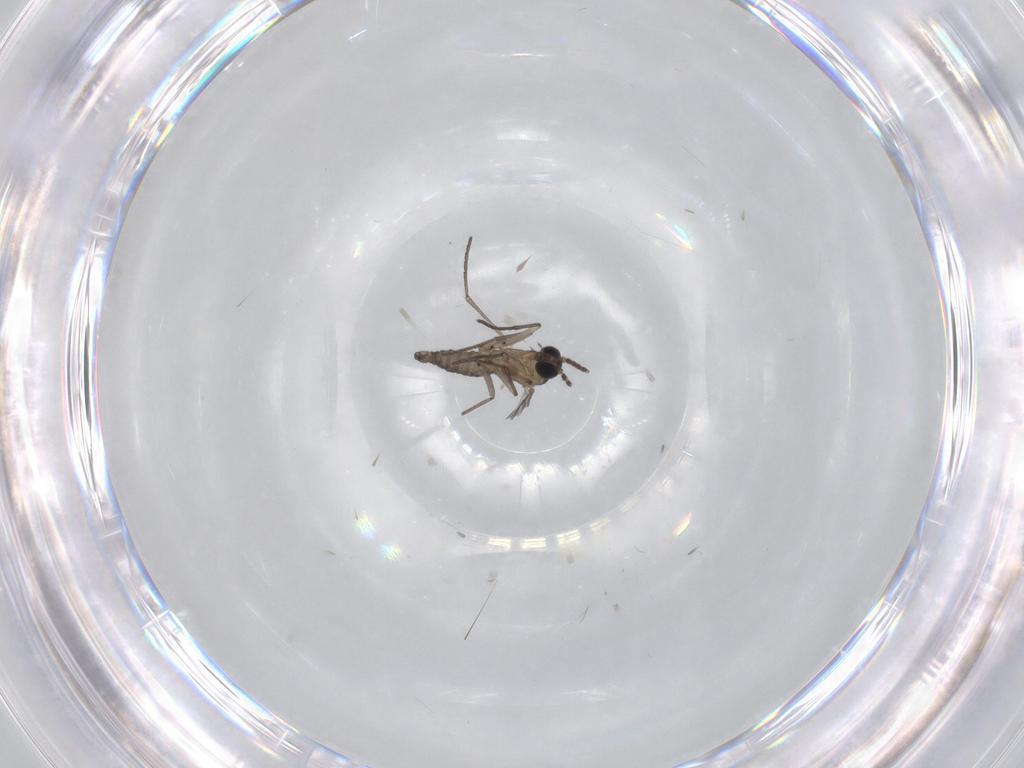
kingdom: Animalia
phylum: Arthropoda
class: Insecta
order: Diptera
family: Sciaridae
